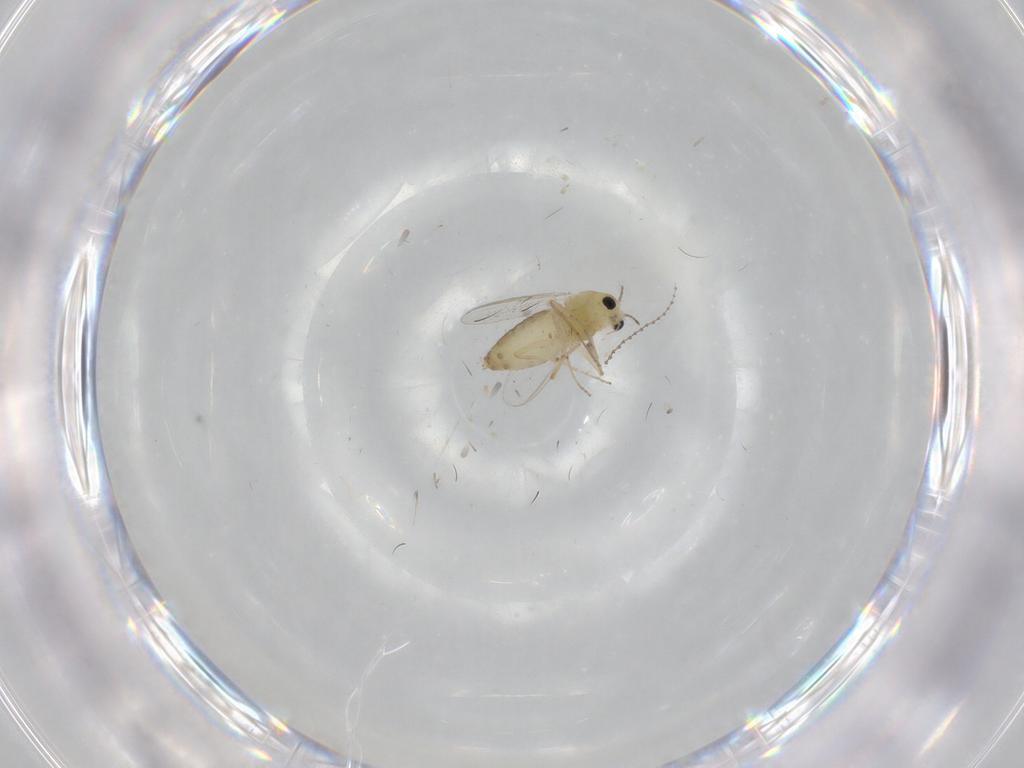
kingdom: Animalia
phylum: Arthropoda
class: Insecta
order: Diptera
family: Chironomidae
